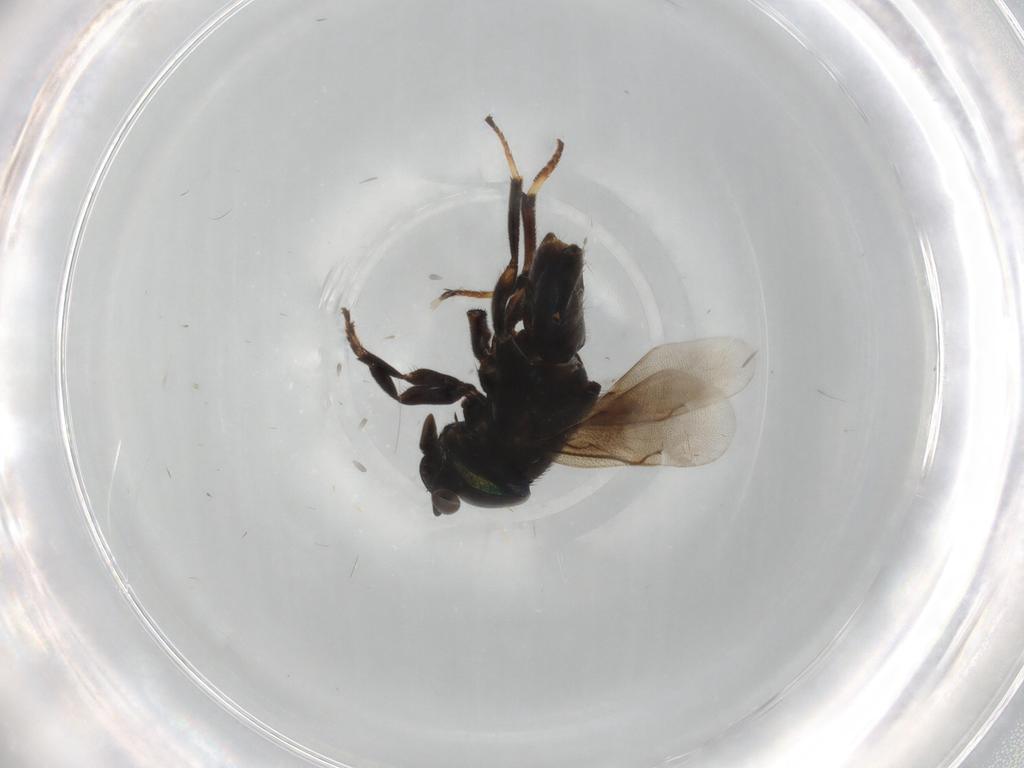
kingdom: Animalia
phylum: Arthropoda
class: Insecta
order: Hymenoptera
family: Encyrtidae
